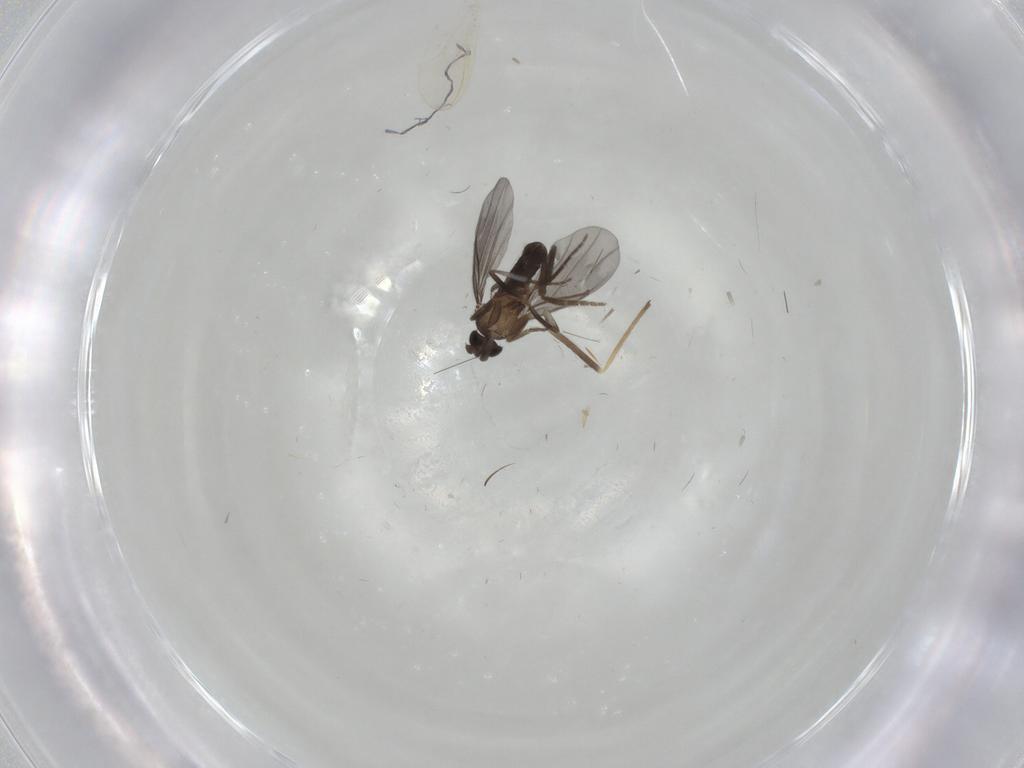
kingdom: Animalia
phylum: Arthropoda
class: Insecta
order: Diptera
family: Phoridae
